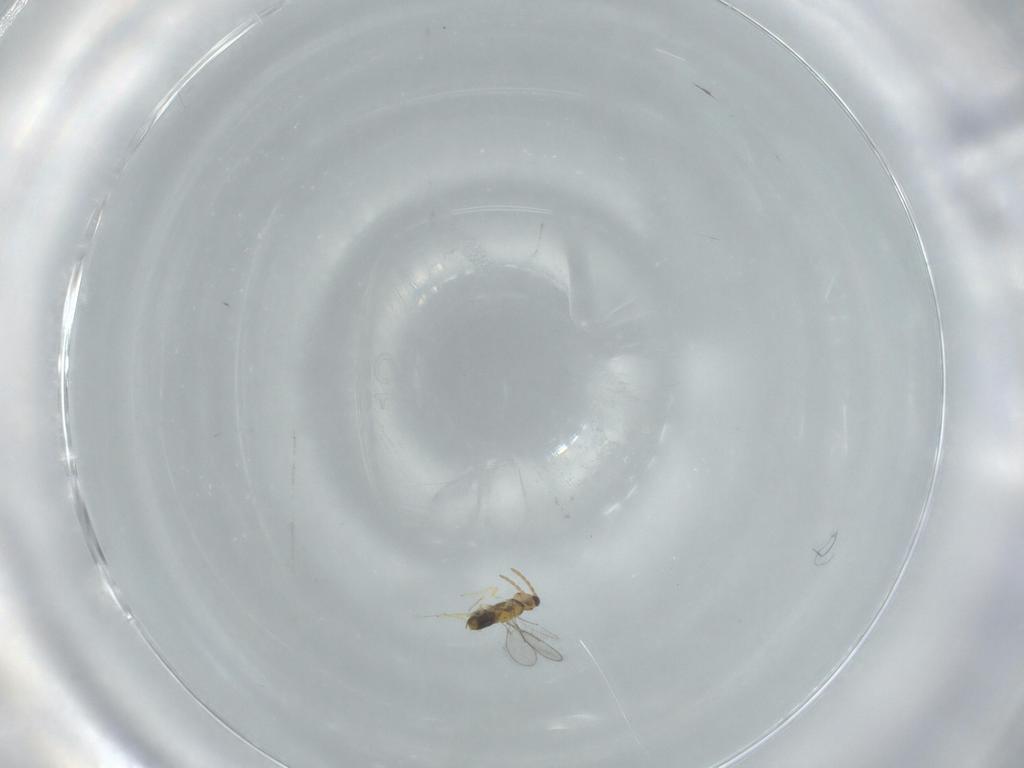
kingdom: Animalia
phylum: Arthropoda
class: Insecta
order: Hymenoptera
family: Aphelinidae
